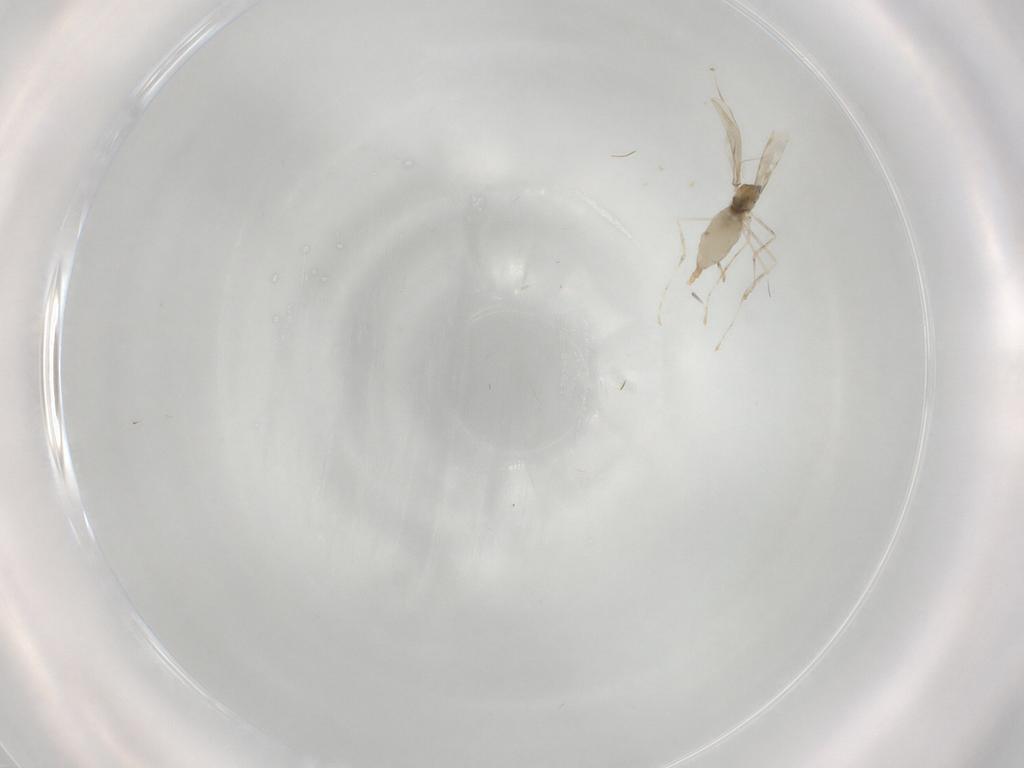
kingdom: Animalia
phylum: Arthropoda
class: Insecta
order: Diptera
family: Cecidomyiidae
